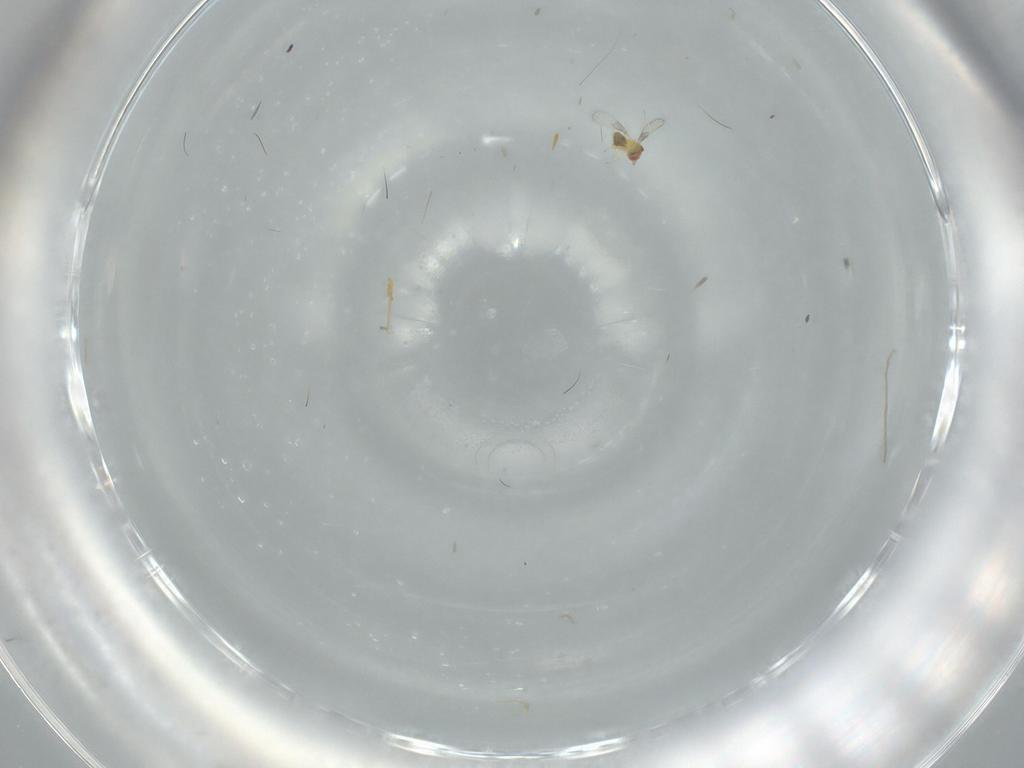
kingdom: Animalia
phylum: Arthropoda
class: Insecta
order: Hymenoptera
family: Trichogrammatidae
